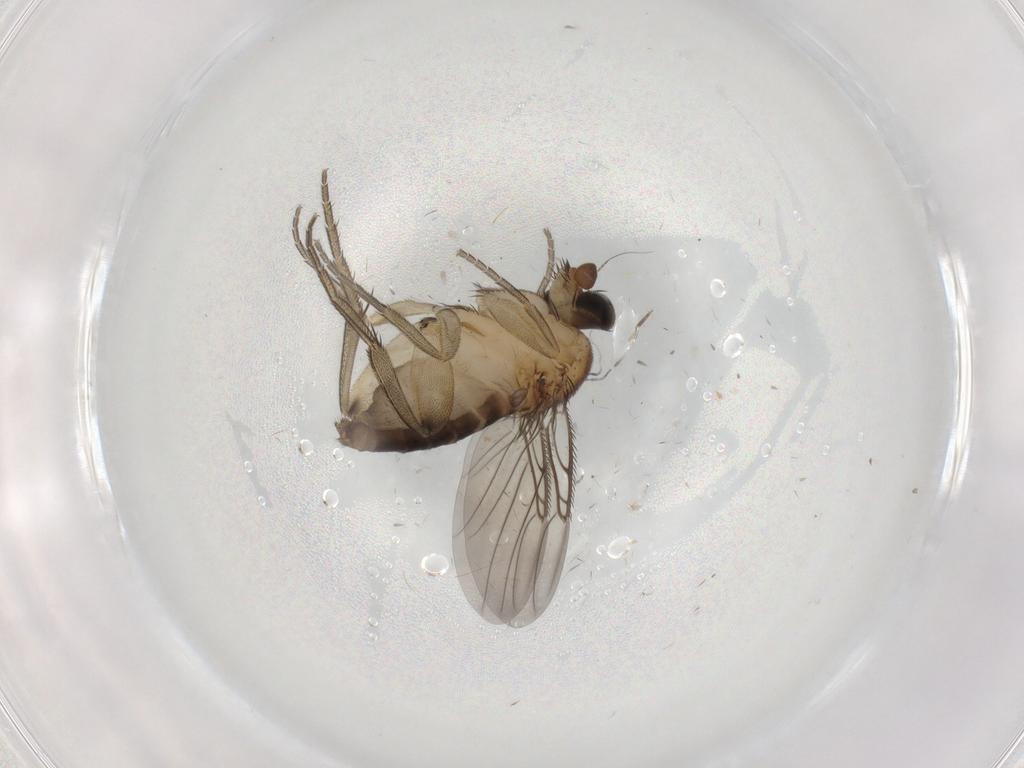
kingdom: Animalia
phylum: Arthropoda
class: Insecta
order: Diptera
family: Phoridae
